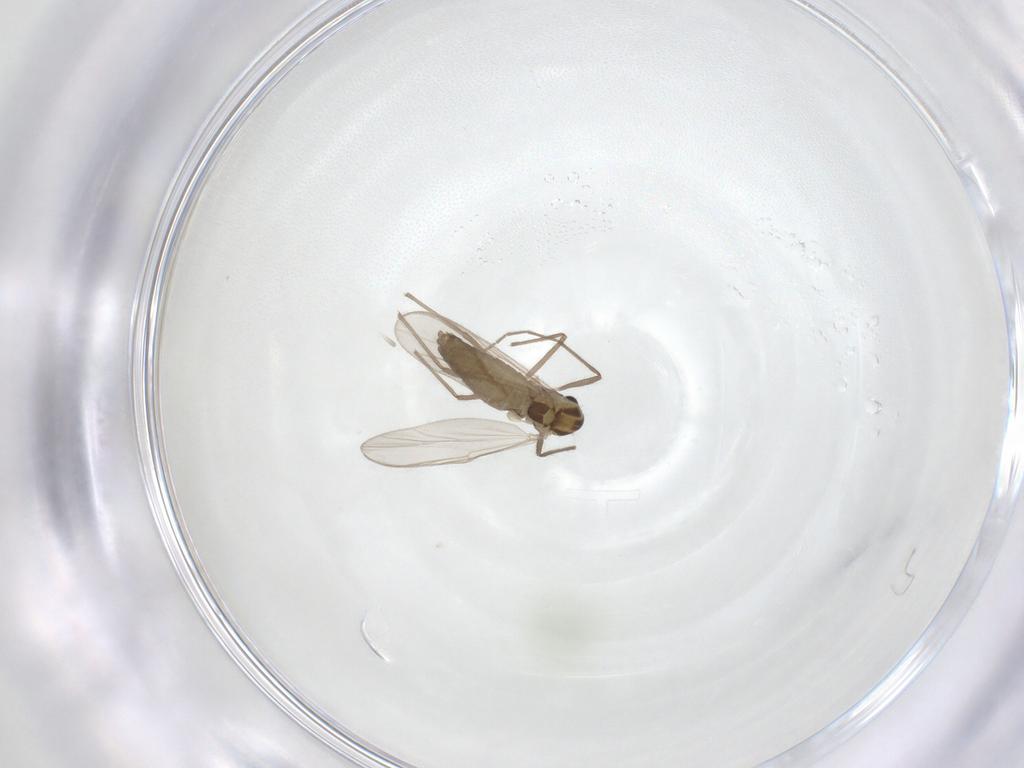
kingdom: Animalia
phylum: Arthropoda
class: Insecta
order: Diptera
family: Chironomidae
